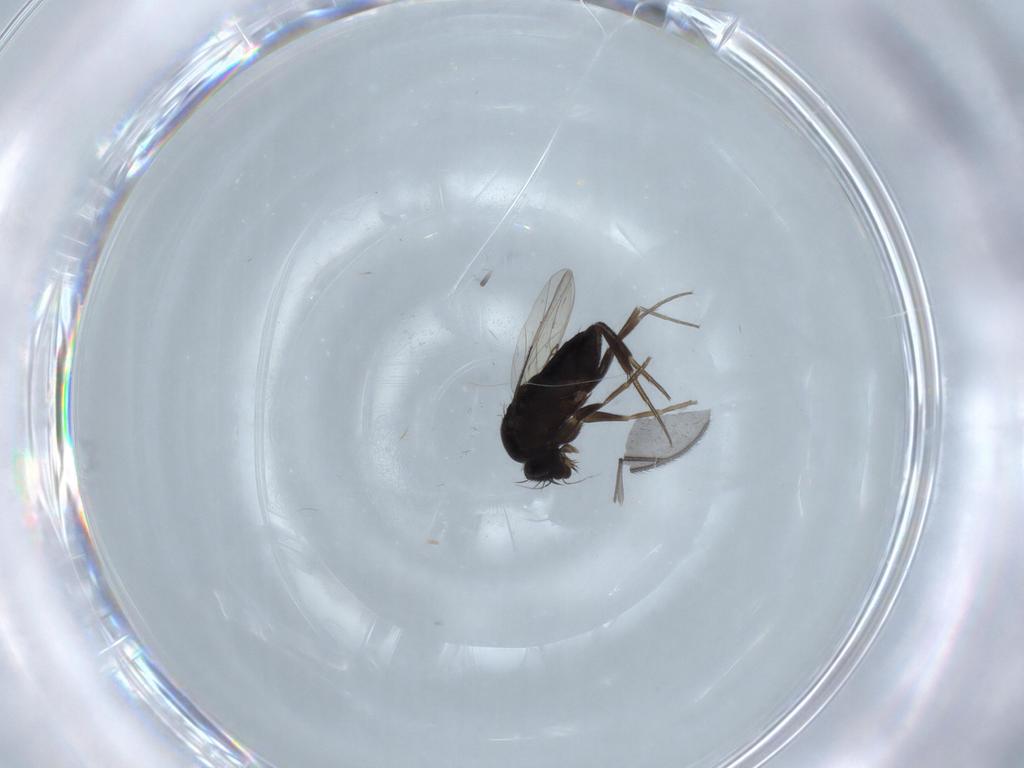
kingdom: Animalia
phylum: Arthropoda
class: Insecta
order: Diptera
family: Phoridae
